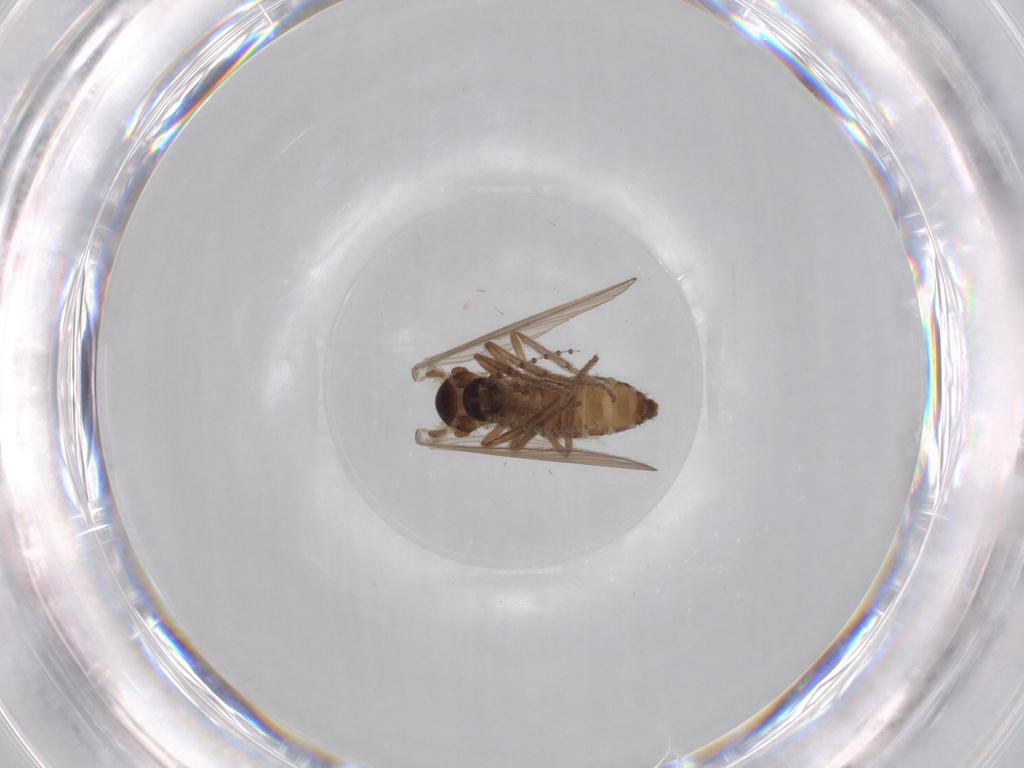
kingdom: Animalia
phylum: Arthropoda
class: Insecta
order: Diptera
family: Psychodidae
